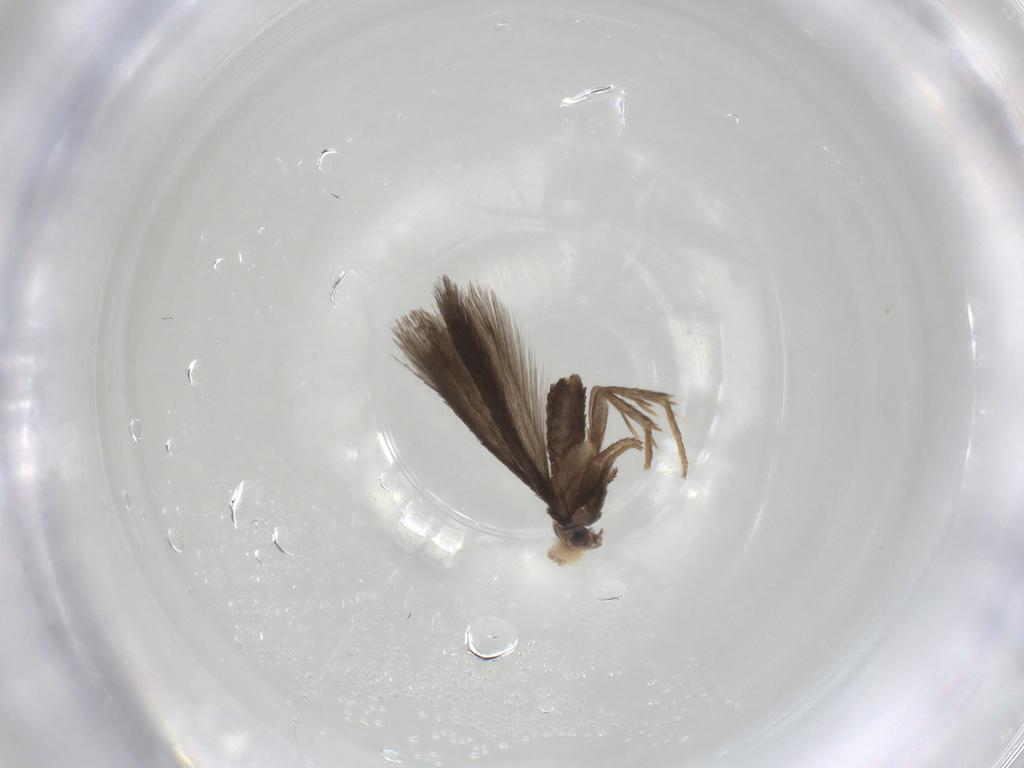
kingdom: Animalia
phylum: Arthropoda
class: Insecta
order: Lepidoptera
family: Nepticulidae
